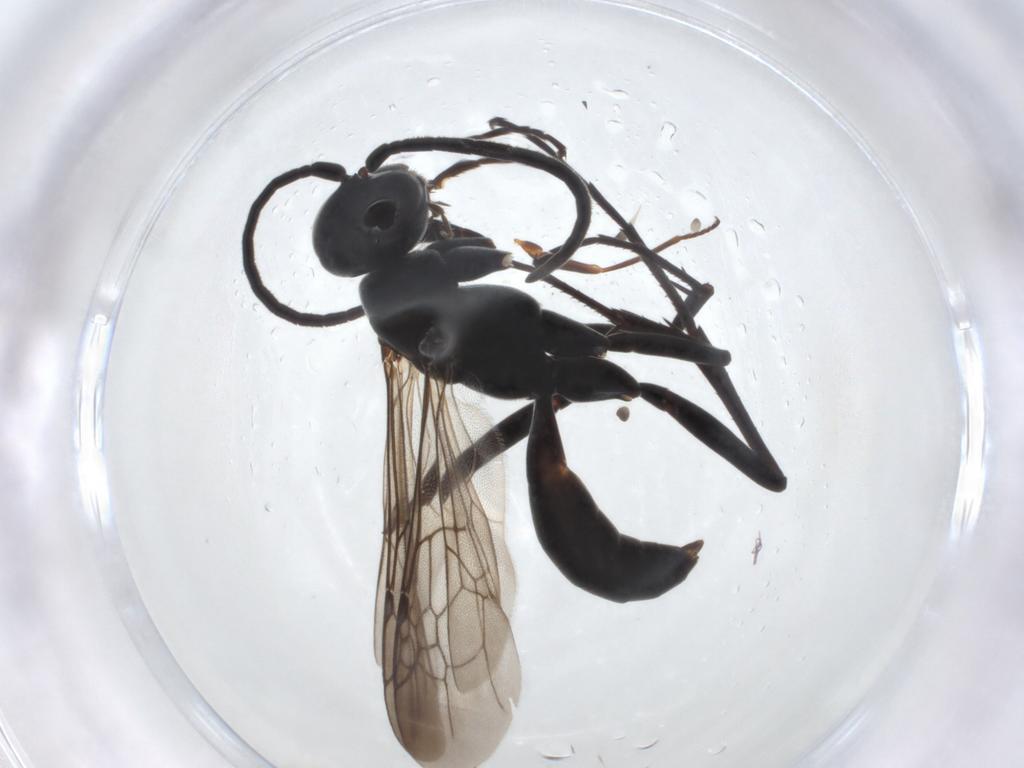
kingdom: Animalia
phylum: Arthropoda
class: Insecta
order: Hymenoptera
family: Pompilidae
